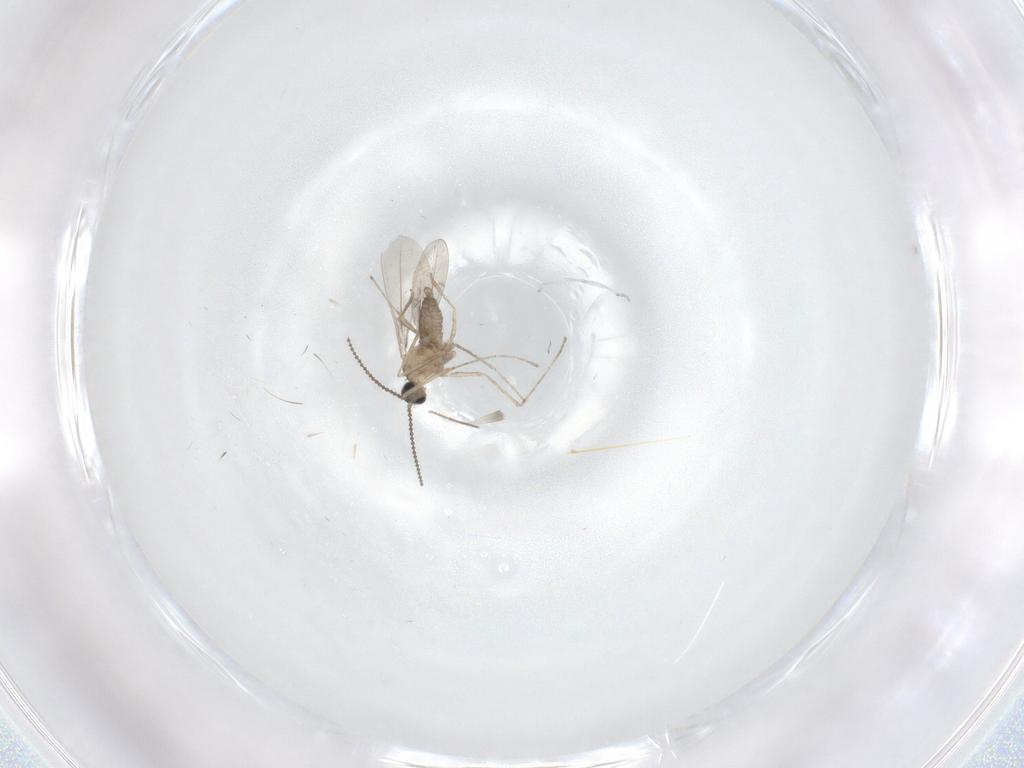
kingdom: Animalia
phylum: Arthropoda
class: Insecta
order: Diptera
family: Cecidomyiidae
